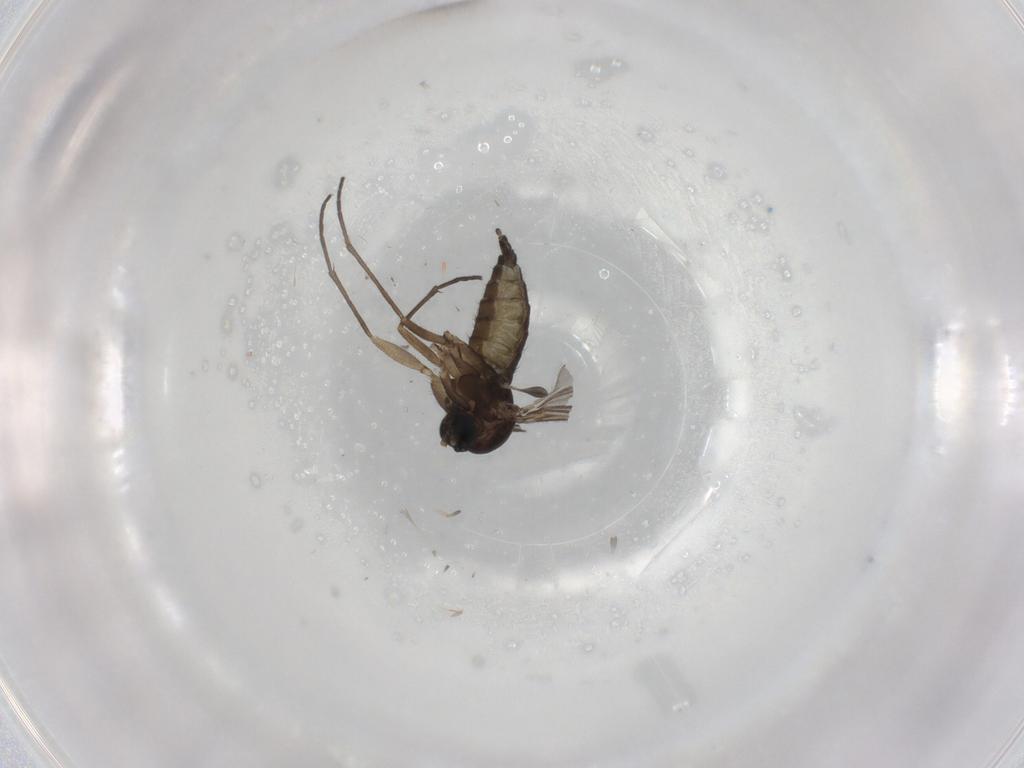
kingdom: Animalia
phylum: Arthropoda
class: Insecta
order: Diptera
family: Sciaridae
